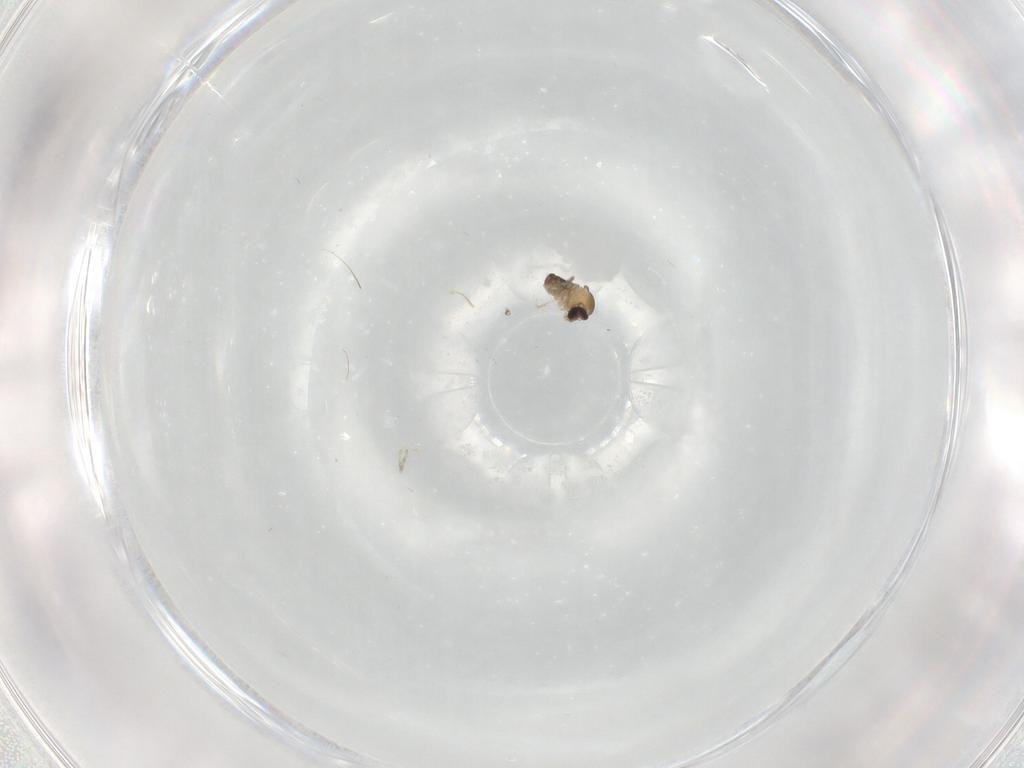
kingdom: Animalia
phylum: Arthropoda
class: Insecta
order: Diptera
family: Cecidomyiidae
